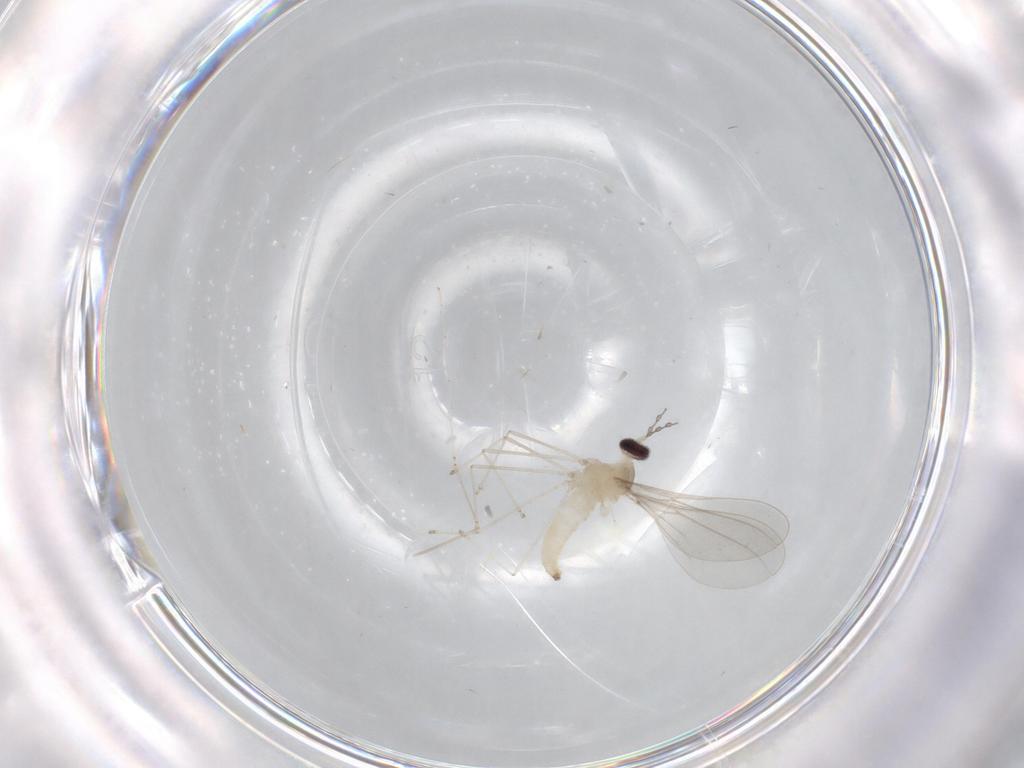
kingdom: Animalia
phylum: Arthropoda
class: Insecta
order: Diptera
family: Cecidomyiidae
